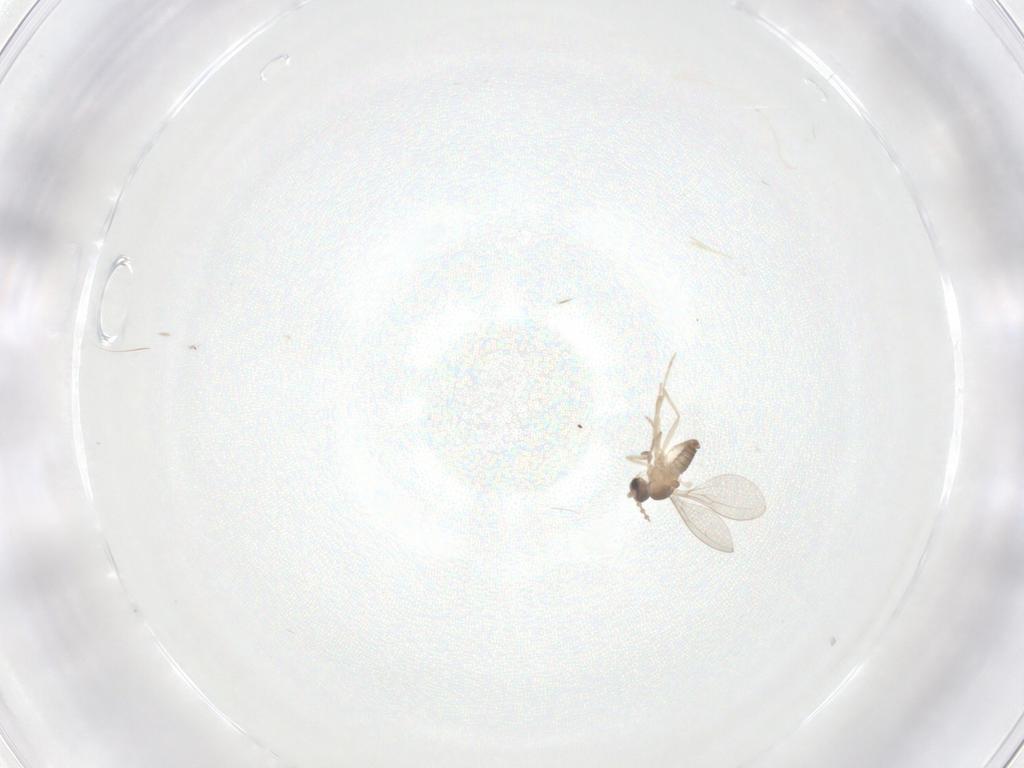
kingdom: Animalia
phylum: Arthropoda
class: Insecta
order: Diptera
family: Cecidomyiidae
